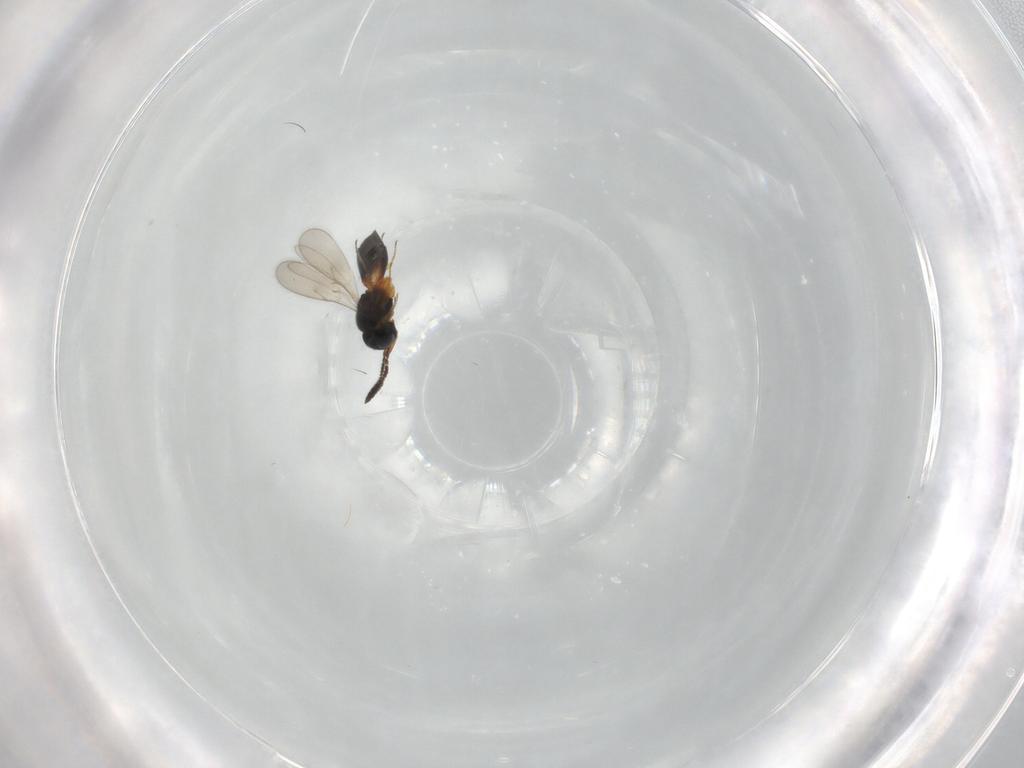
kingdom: Animalia
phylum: Arthropoda
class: Insecta
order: Hymenoptera
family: Scelionidae
